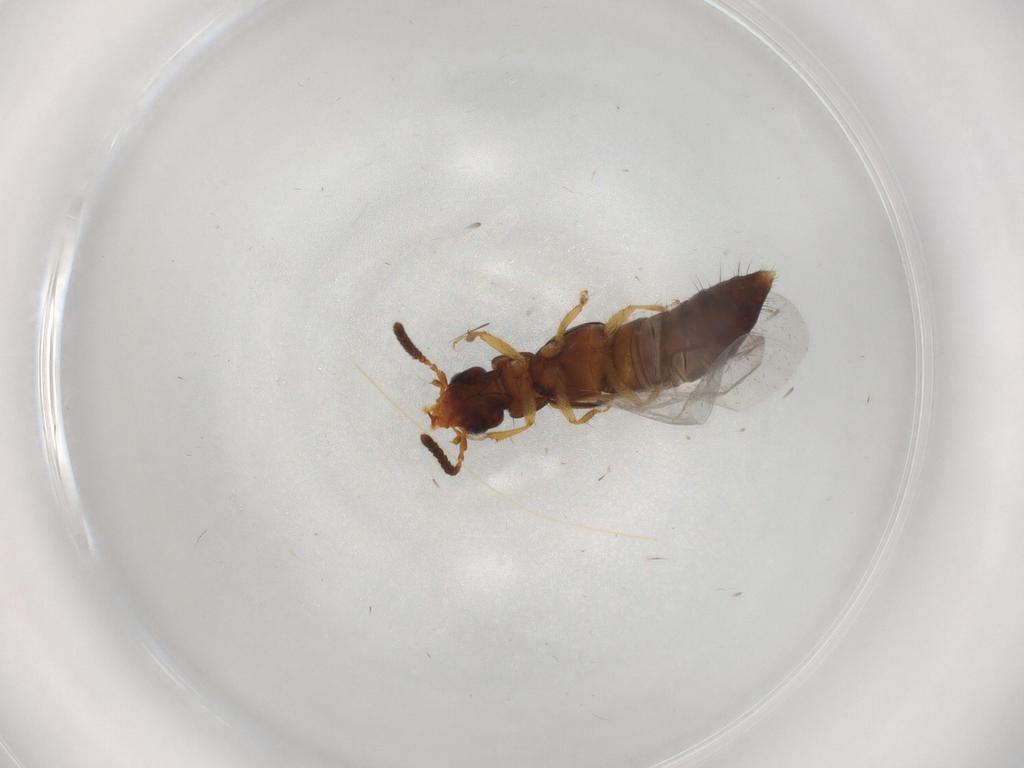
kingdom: Animalia
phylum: Arthropoda
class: Insecta
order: Coleoptera
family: Staphylinidae
